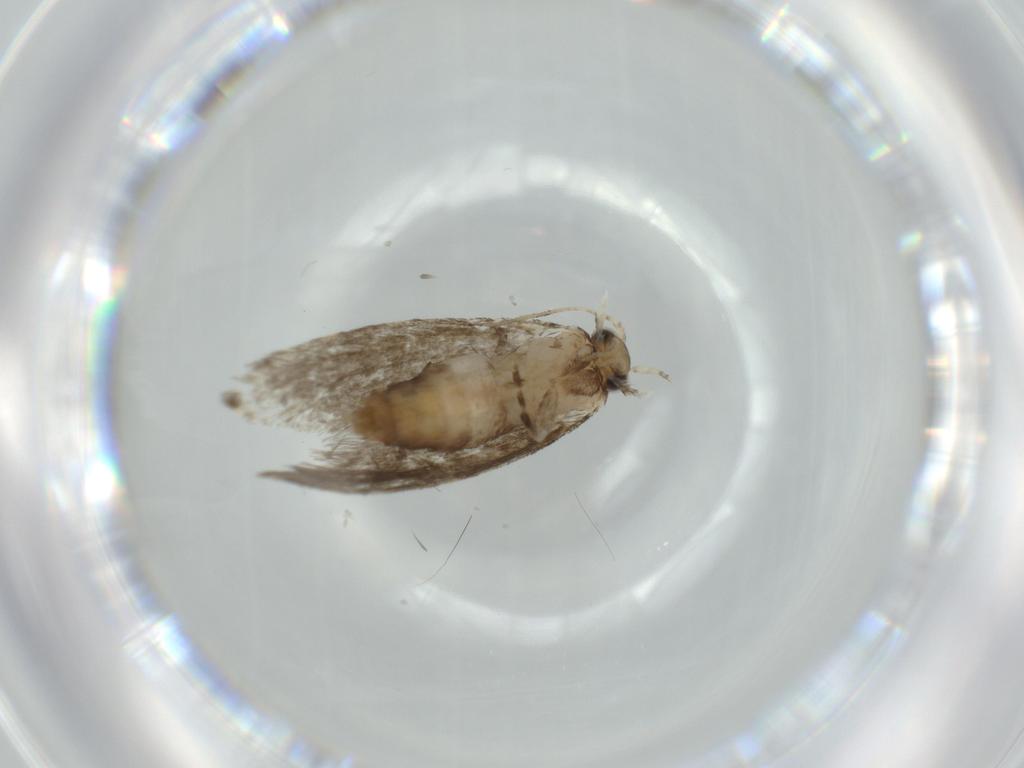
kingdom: Animalia
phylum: Arthropoda
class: Insecta
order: Lepidoptera
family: Tineidae
